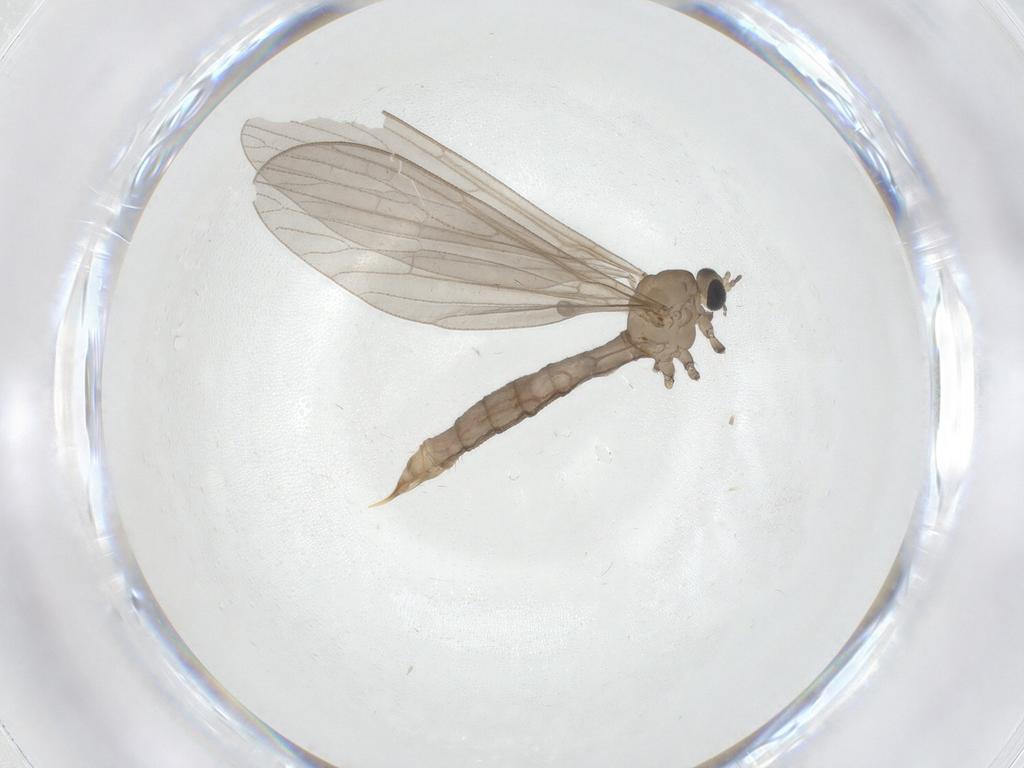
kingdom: Animalia
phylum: Arthropoda
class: Insecta
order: Diptera
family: Limoniidae
